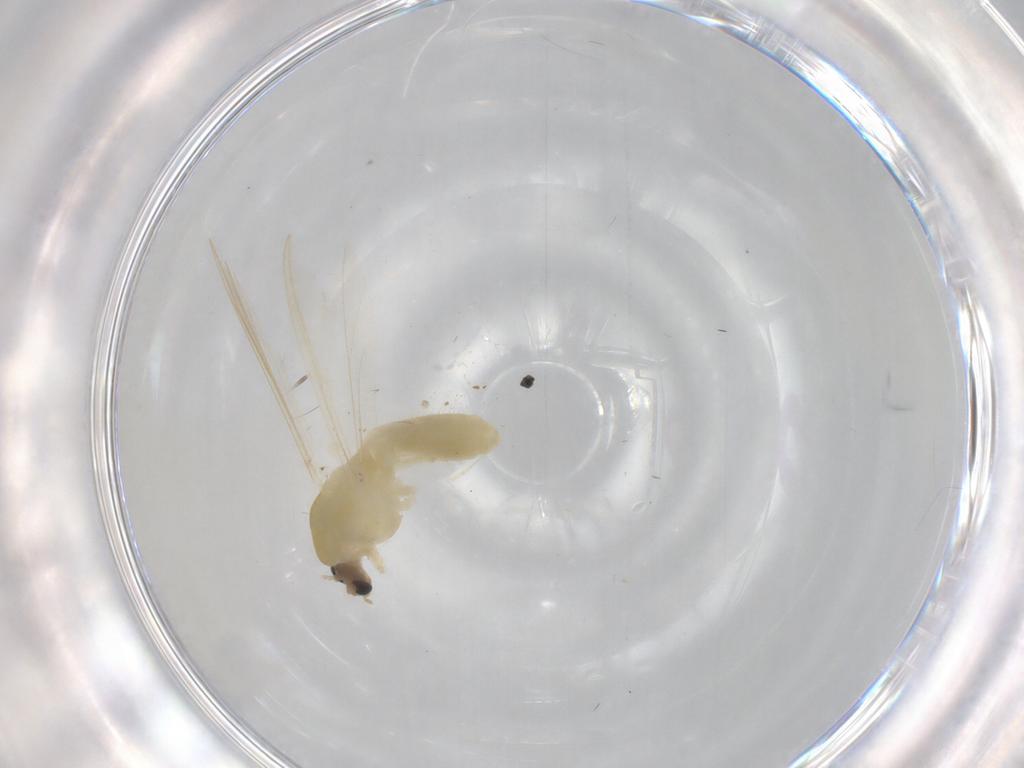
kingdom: Animalia
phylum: Arthropoda
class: Insecta
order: Diptera
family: Chironomidae
